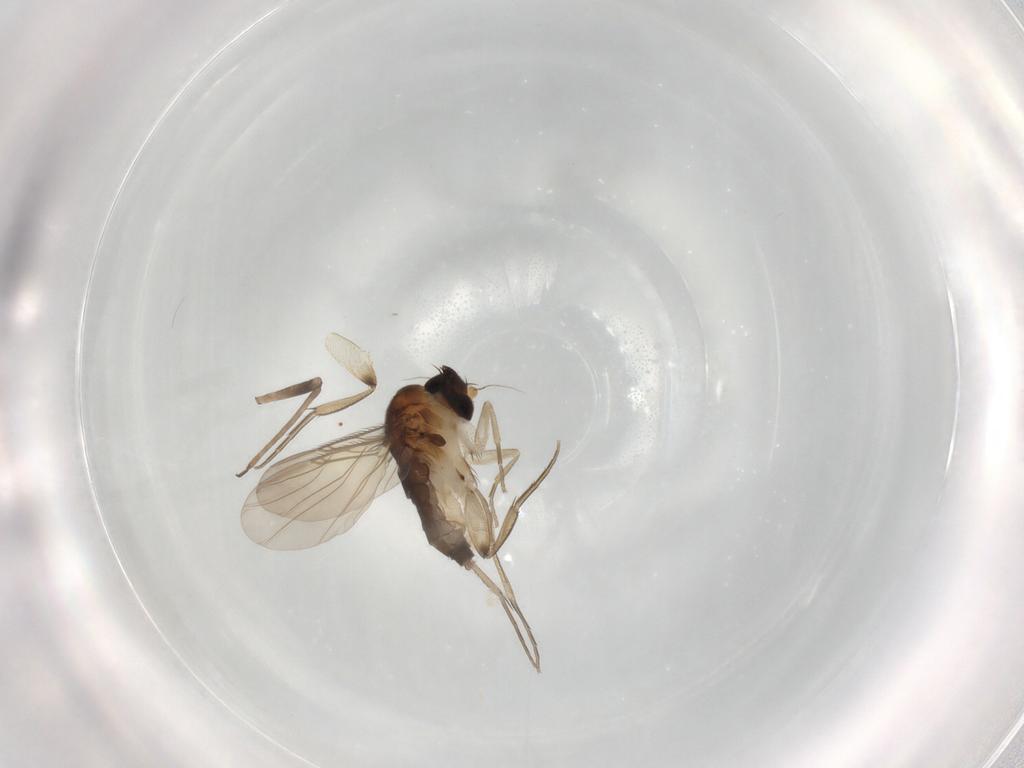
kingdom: Animalia
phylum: Arthropoda
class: Insecta
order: Diptera
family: Phoridae
